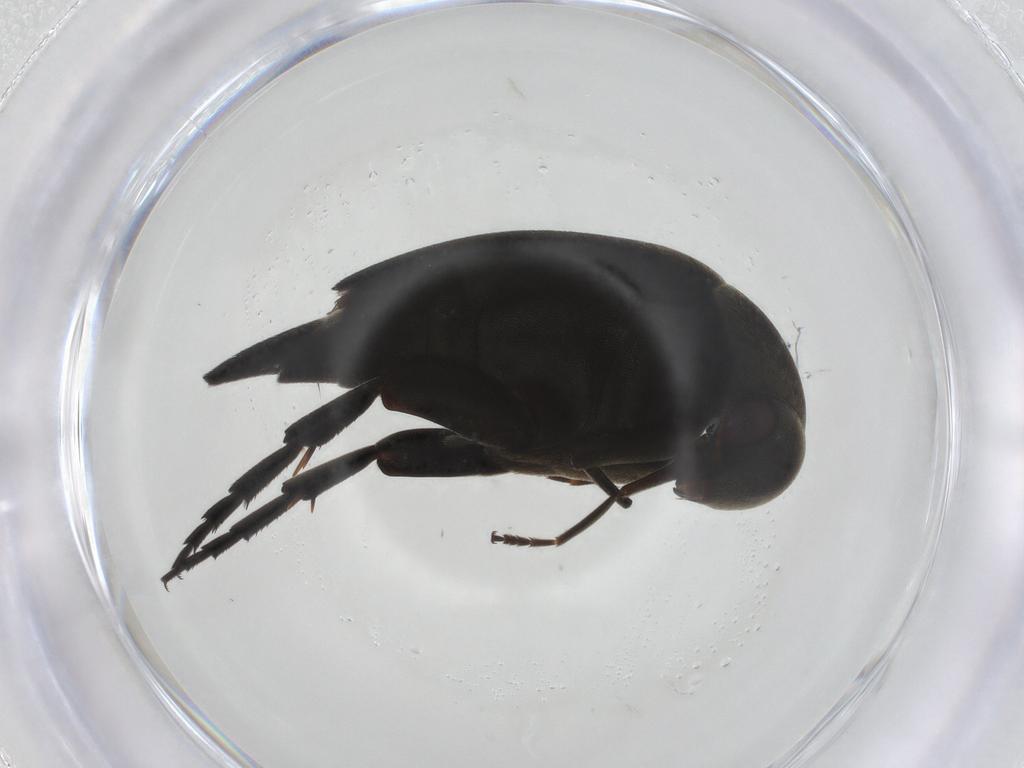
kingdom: Animalia
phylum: Arthropoda
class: Insecta
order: Coleoptera
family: Mordellidae
